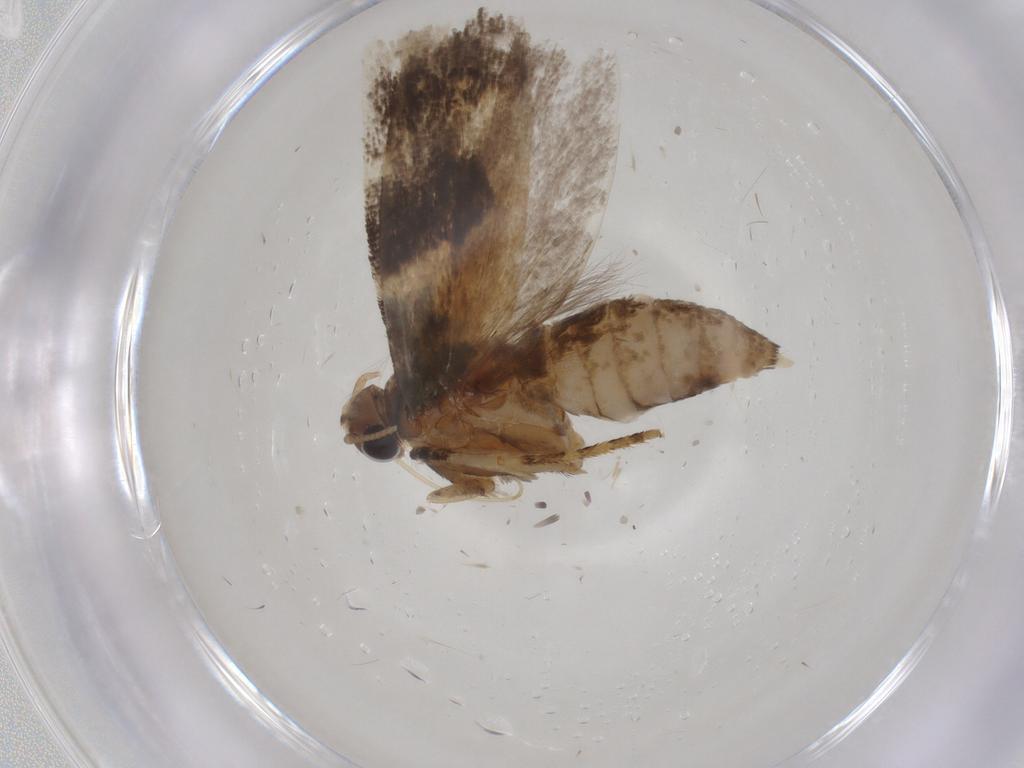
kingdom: Animalia
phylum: Arthropoda
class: Insecta
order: Lepidoptera
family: Gelechiidae
